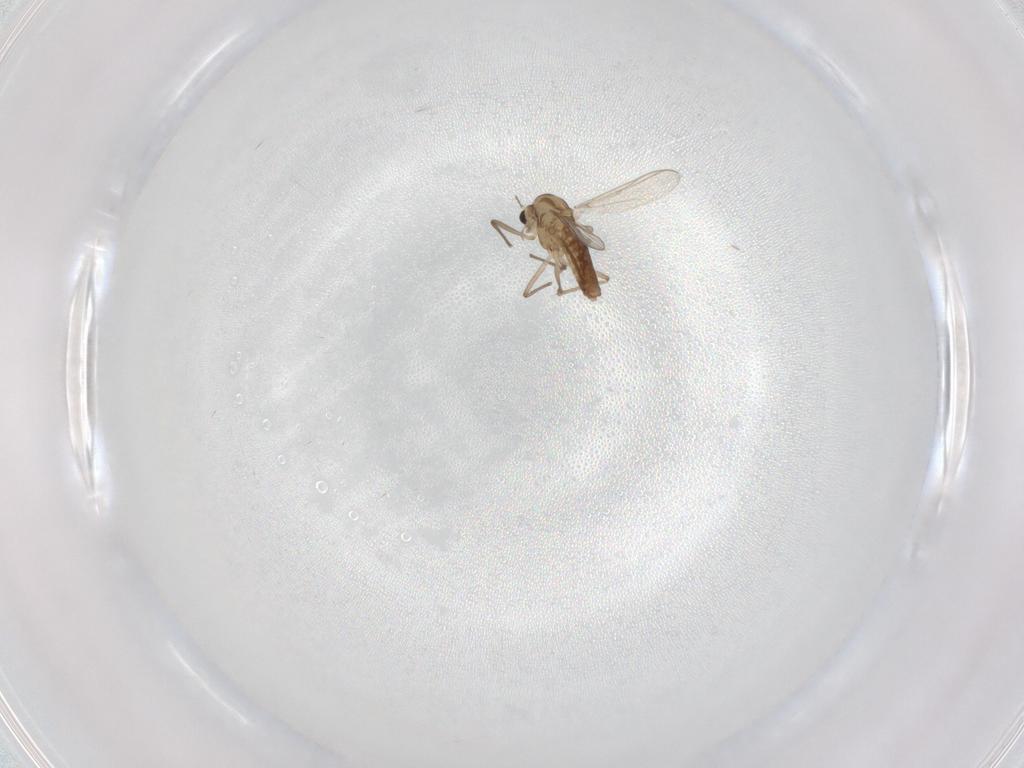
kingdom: Animalia
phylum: Arthropoda
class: Insecta
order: Diptera
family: Chironomidae
